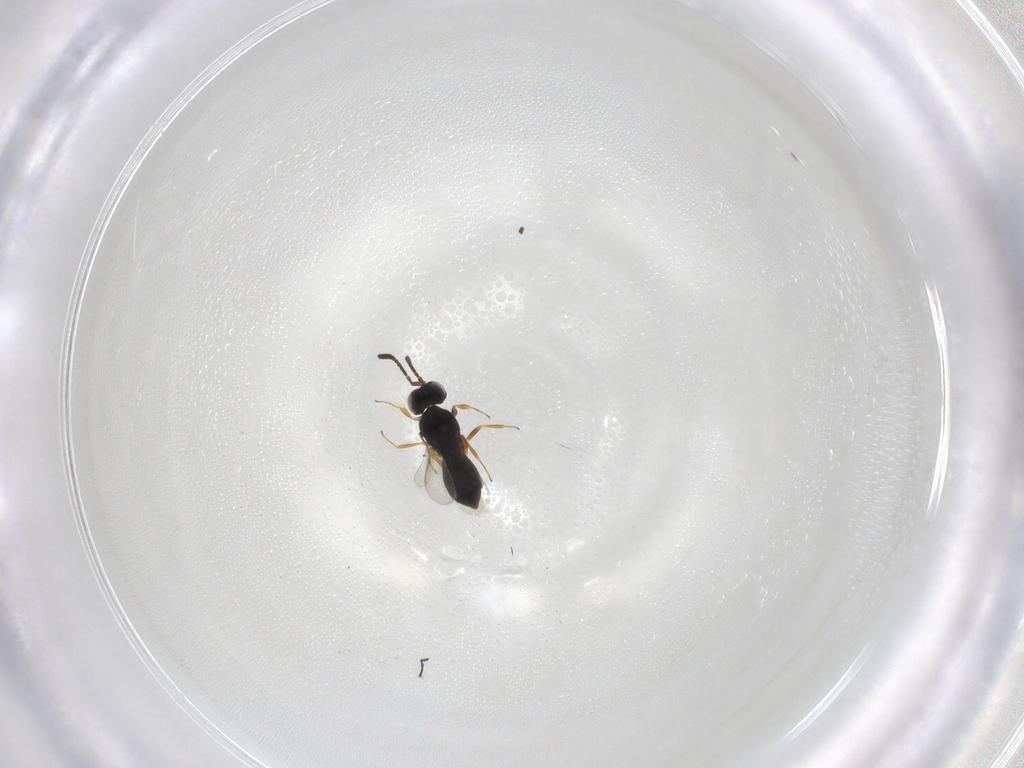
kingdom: Animalia
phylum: Arthropoda
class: Insecta
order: Hymenoptera
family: Scelionidae
